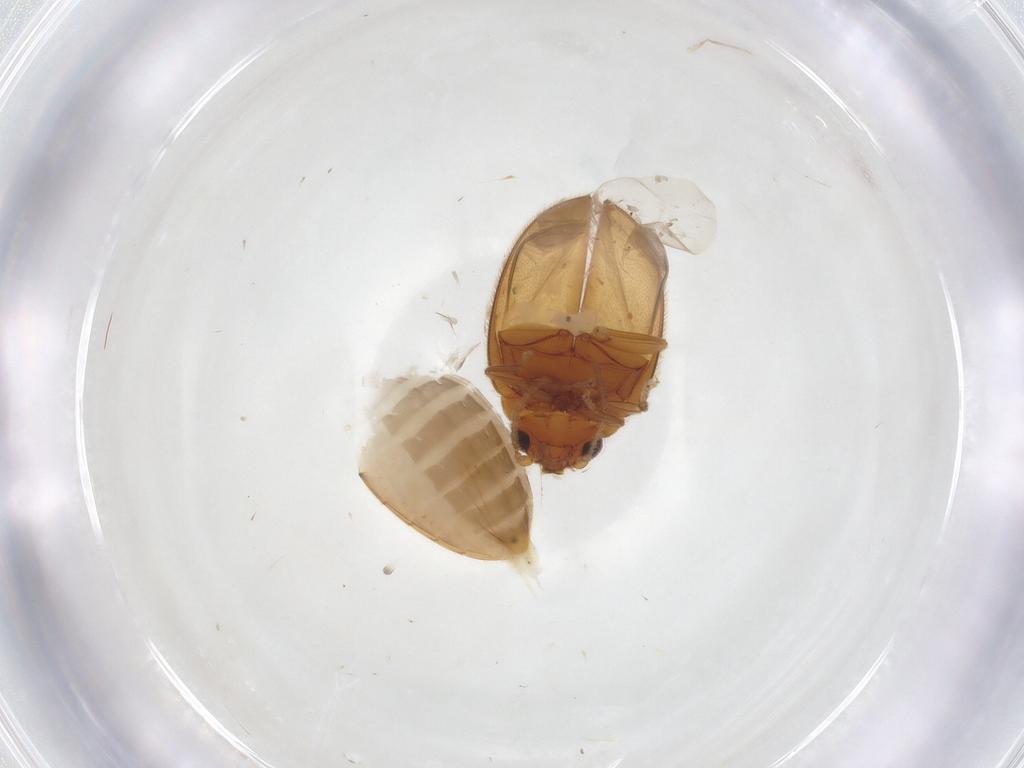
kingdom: Animalia
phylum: Arthropoda
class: Insecta
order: Coleoptera
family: Scirtidae
